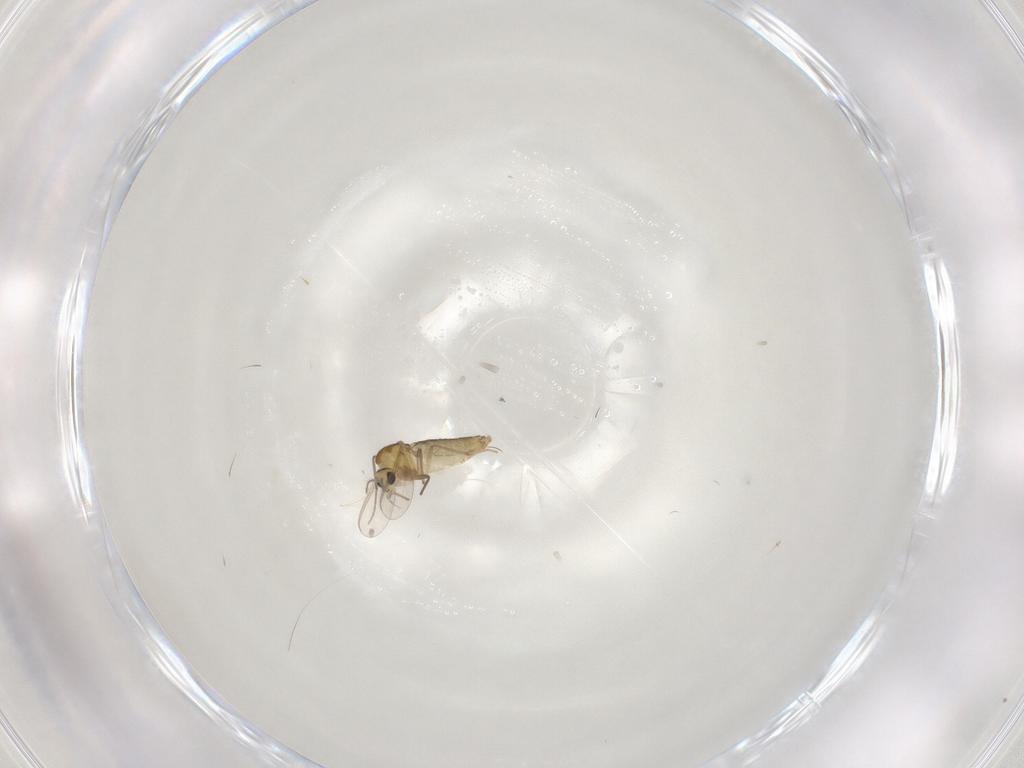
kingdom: Animalia
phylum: Arthropoda
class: Insecta
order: Diptera
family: Chironomidae
